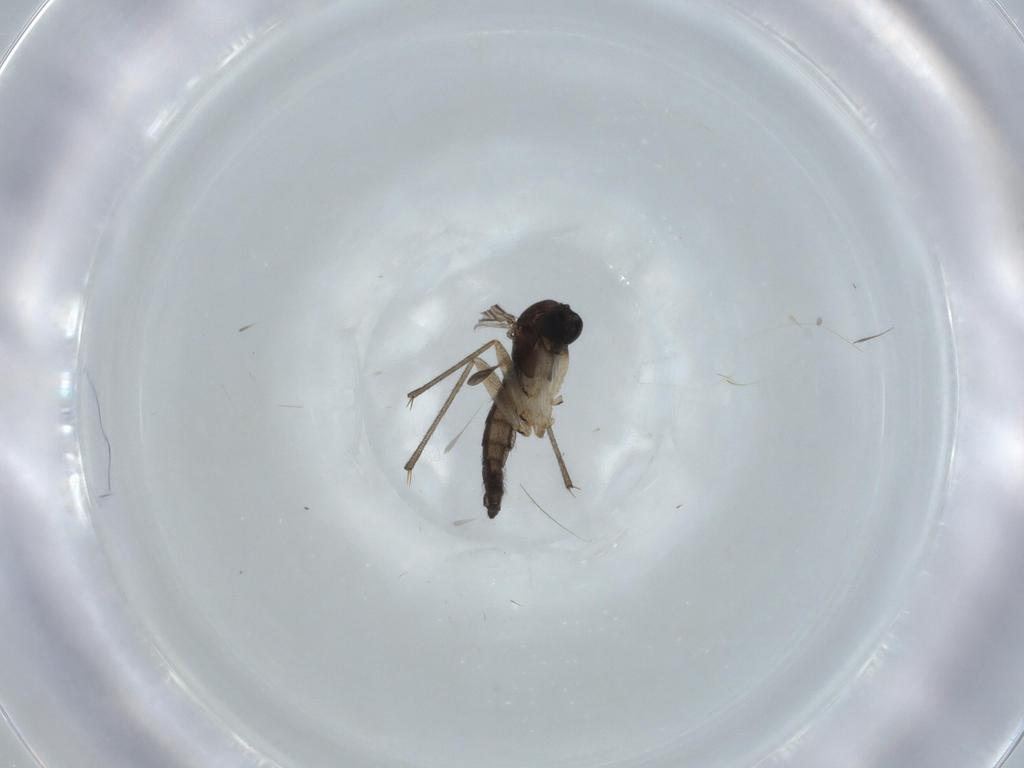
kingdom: Animalia
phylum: Arthropoda
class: Insecta
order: Diptera
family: Sciaridae
